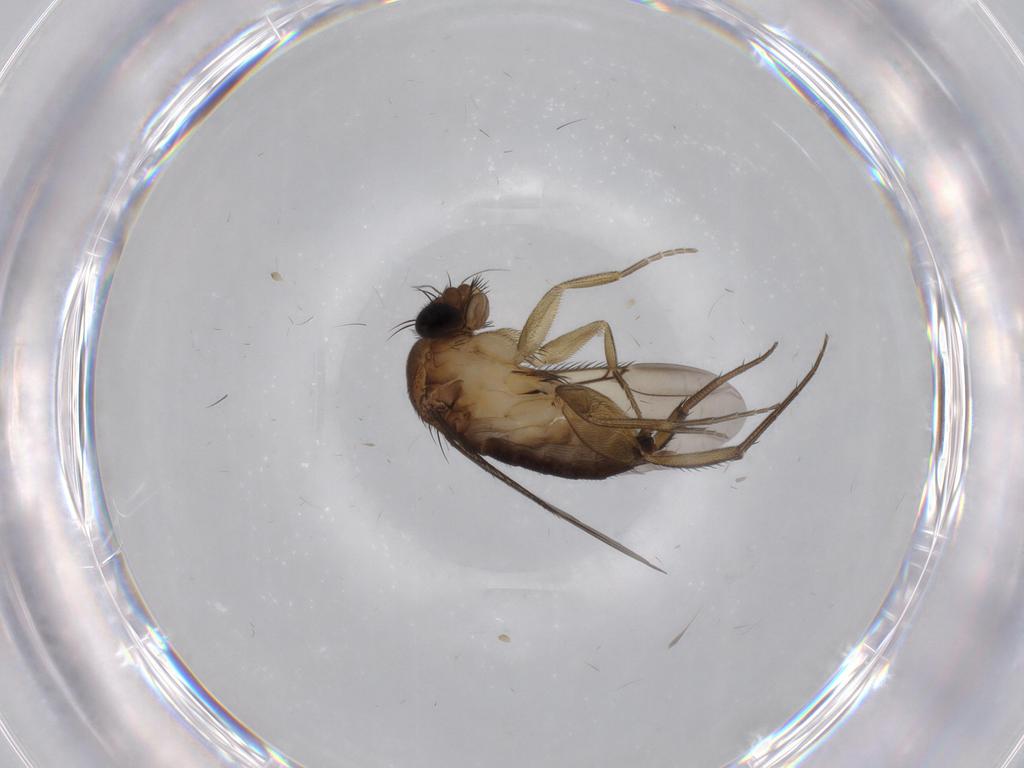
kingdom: Animalia
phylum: Arthropoda
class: Insecta
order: Diptera
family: Phoridae
